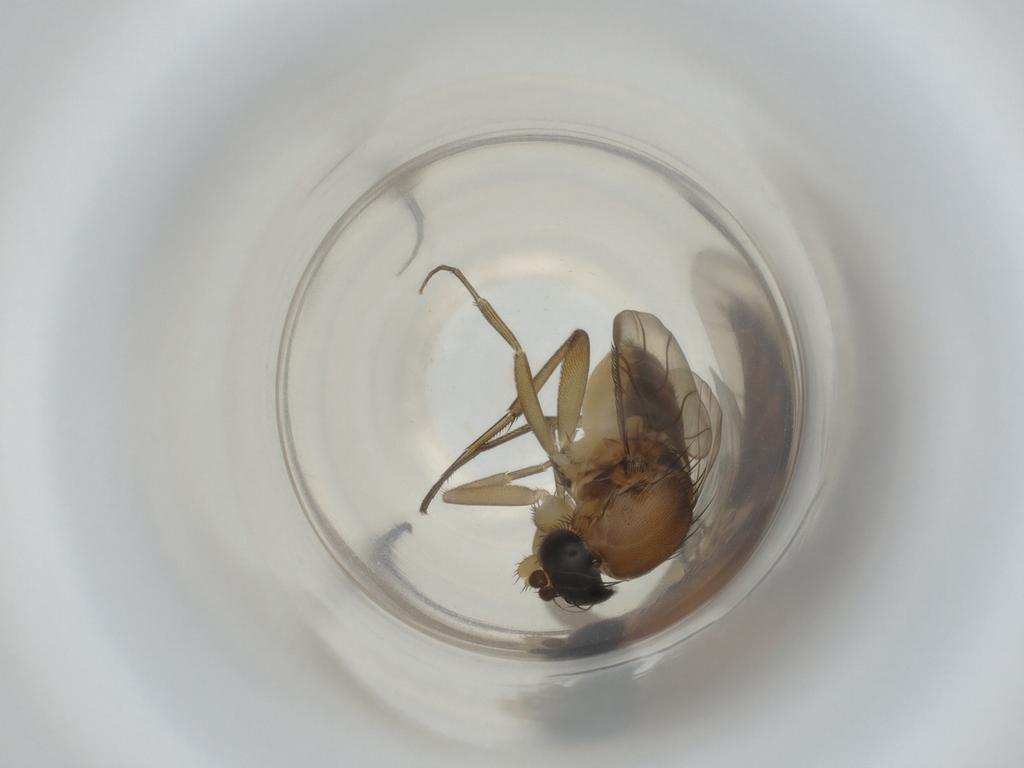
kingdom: Animalia
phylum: Arthropoda
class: Insecta
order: Diptera
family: Phoridae
